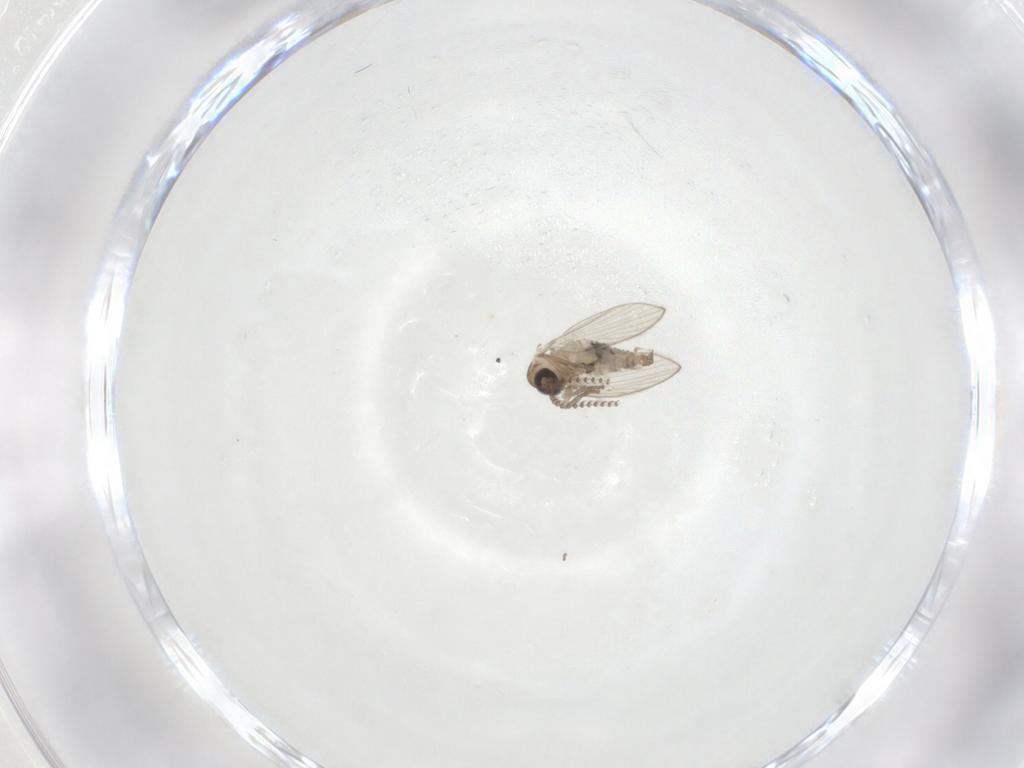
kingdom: Animalia
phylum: Arthropoda
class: Insecta
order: Diptera
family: Psychodidae
